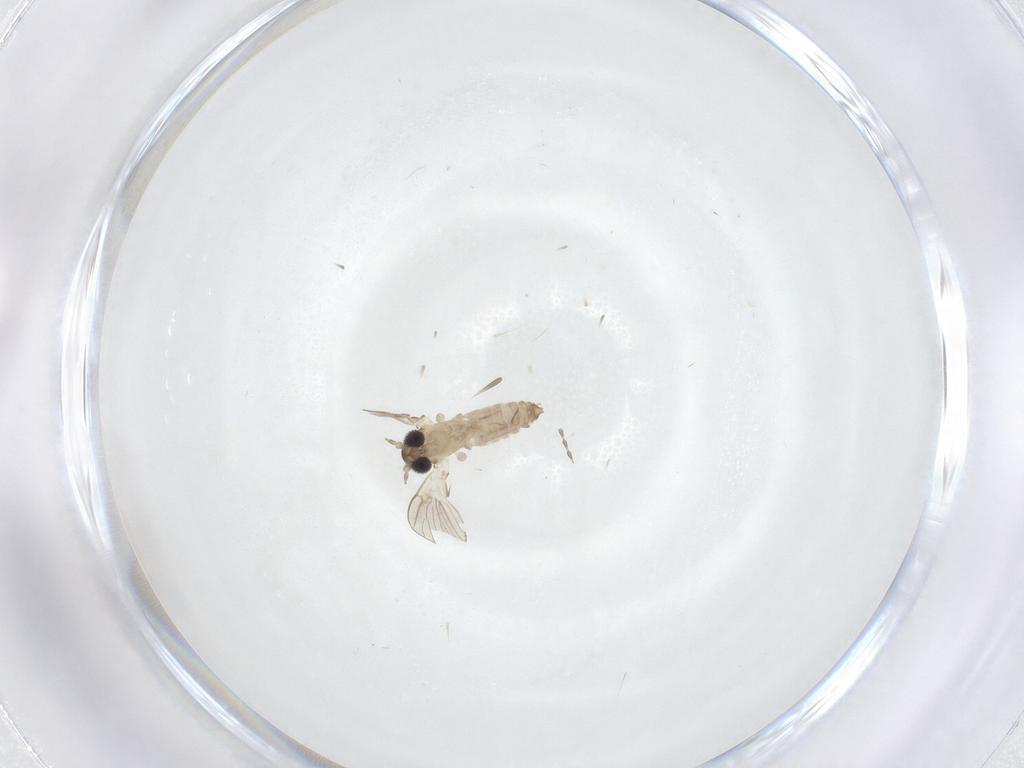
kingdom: Animalia
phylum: Arthropoda
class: Insecta
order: Diptera
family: Psychodidae
